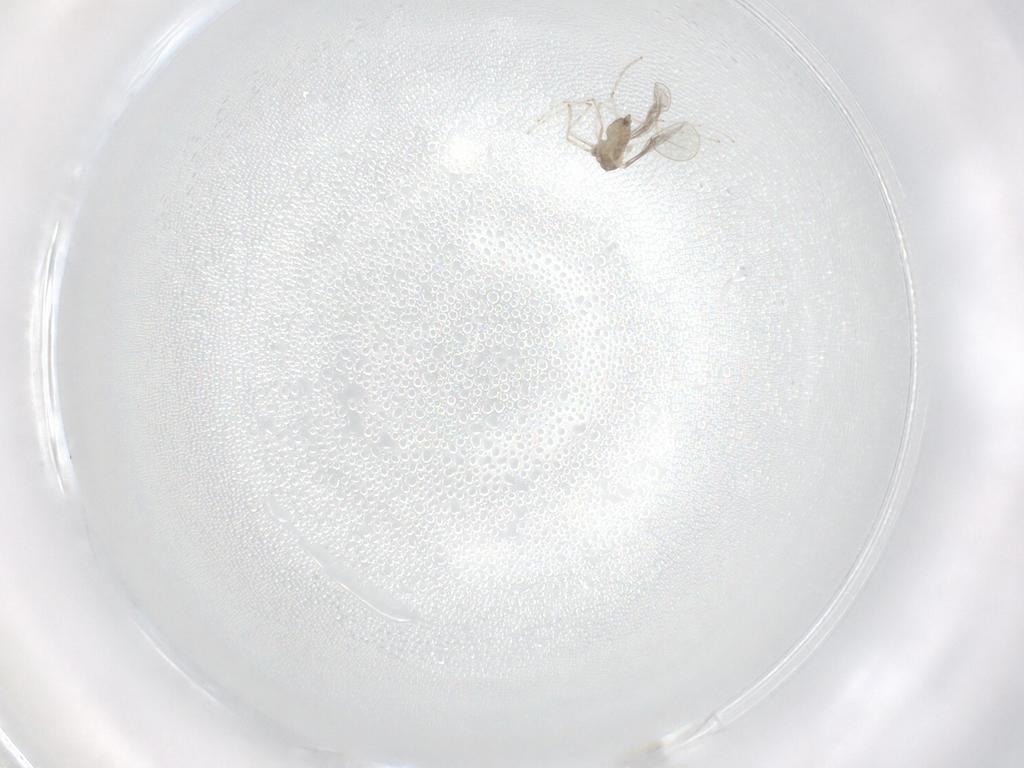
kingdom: Animalia
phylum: Arthropoda
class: Insecta
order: Diptera
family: Cecidomyiidae
